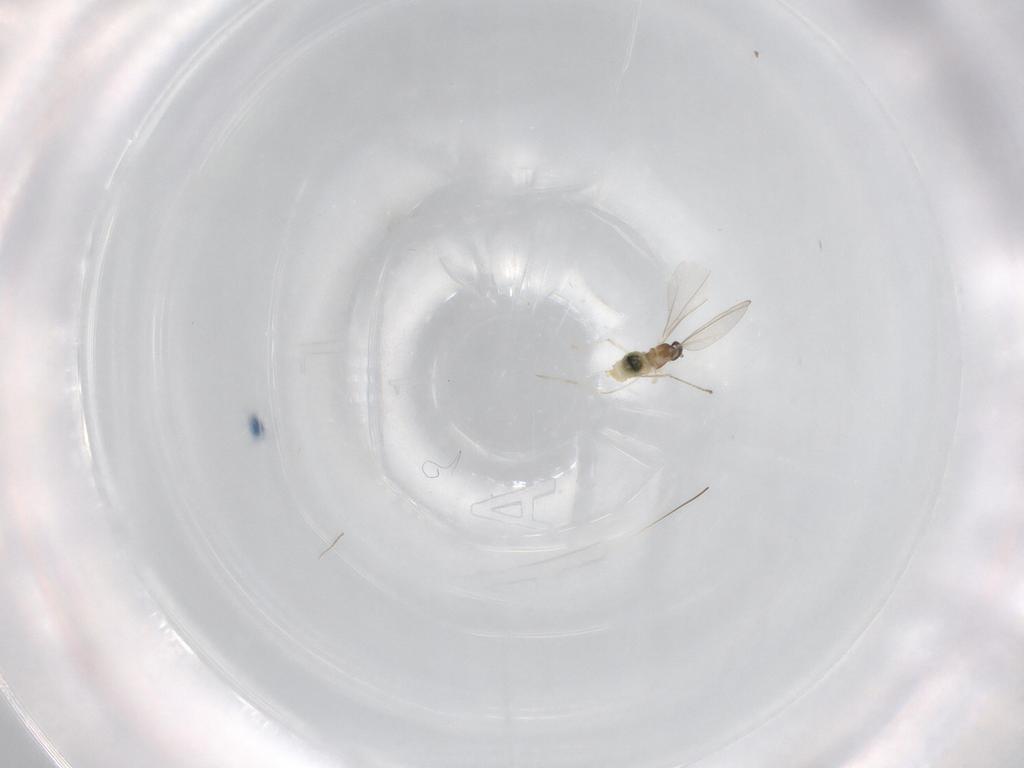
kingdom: Animalia
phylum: Arthropoda
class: Insecta
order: Diptera
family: Cecidomyiidae
